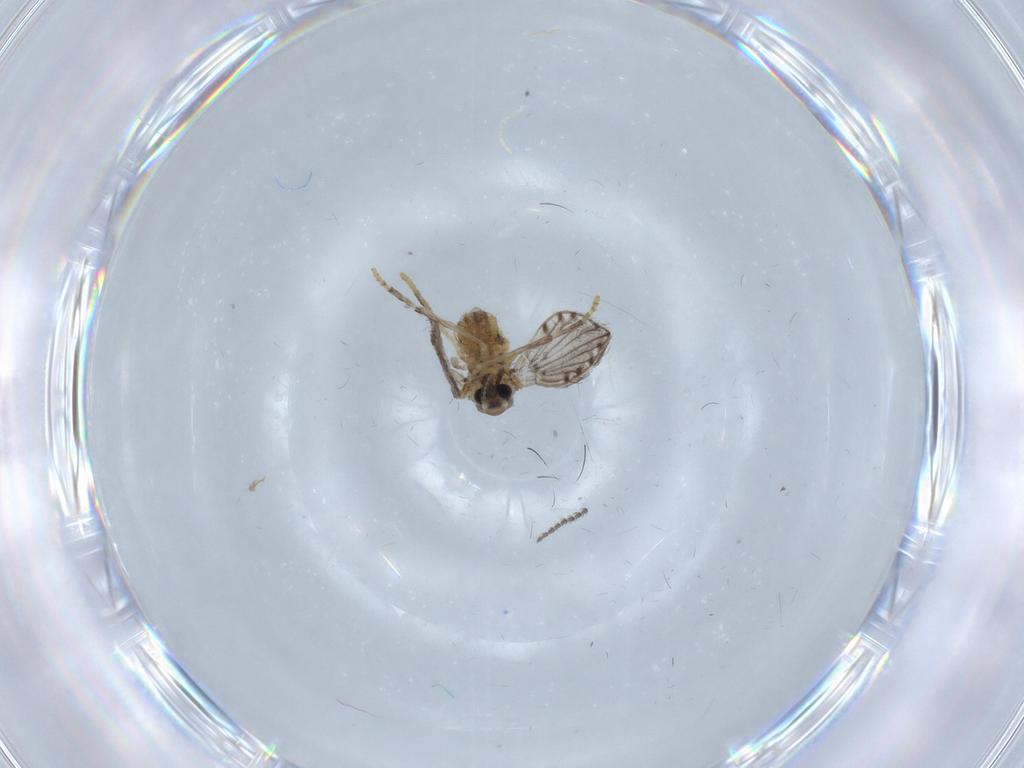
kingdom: Animalia
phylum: Arthropoda
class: Insecta
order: Diptera
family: Cecidomyiidae
